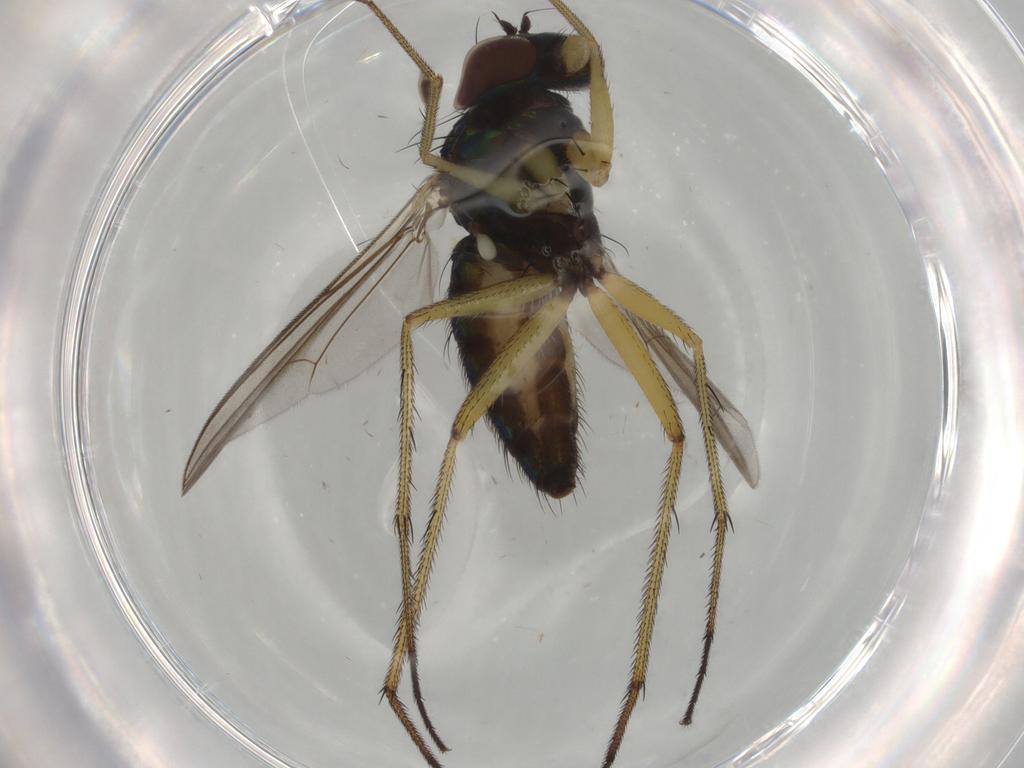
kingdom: Animalia
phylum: Arthropoda
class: Insecta
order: Diptera
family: Dolichopodidae
